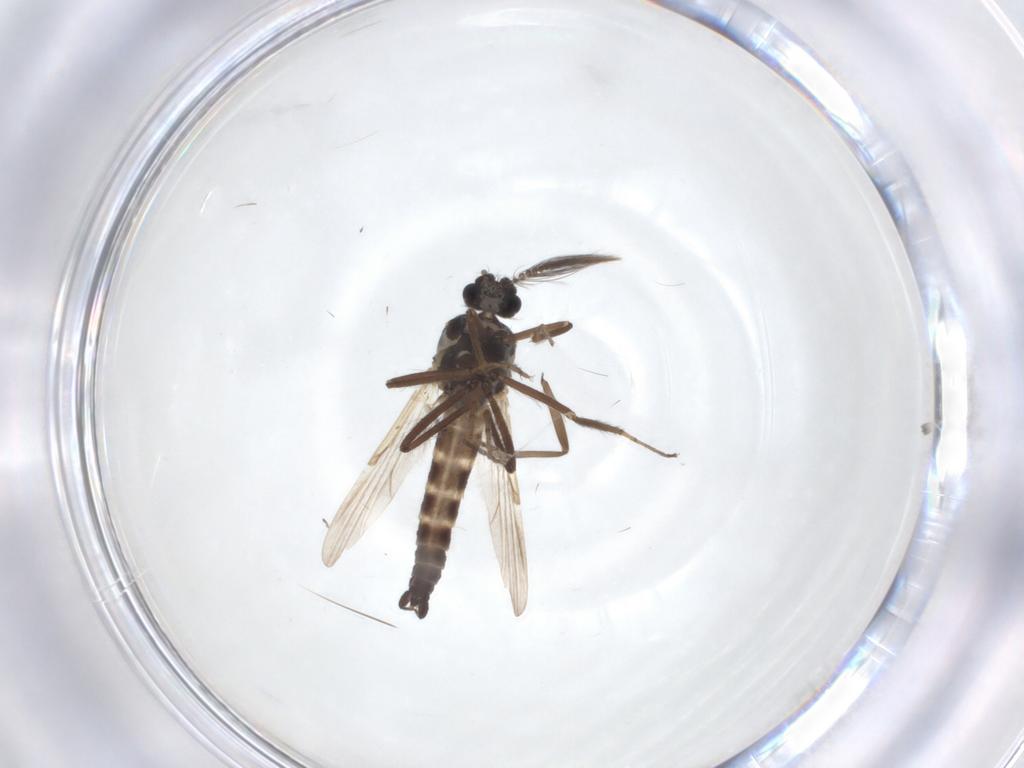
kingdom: Animalia
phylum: Arthropoda
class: Insecta
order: Diptera
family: Ceratopogonidae
